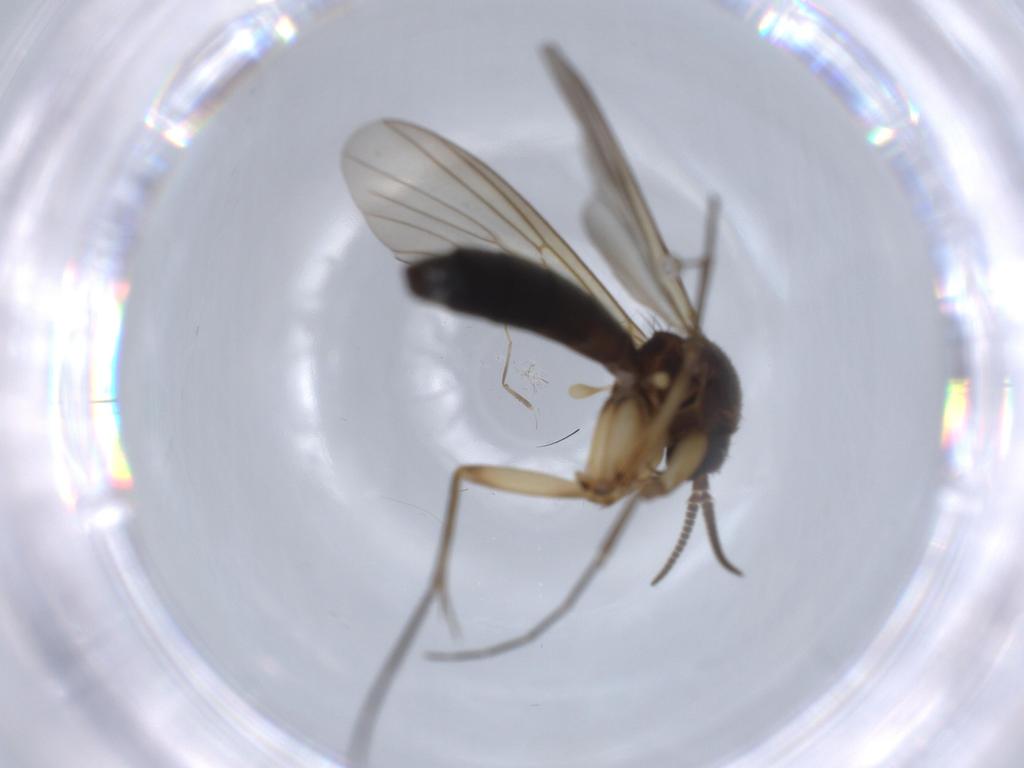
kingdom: Animalia
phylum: Arthropoda
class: Insecta
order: Diptera
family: Mycetophilidae
